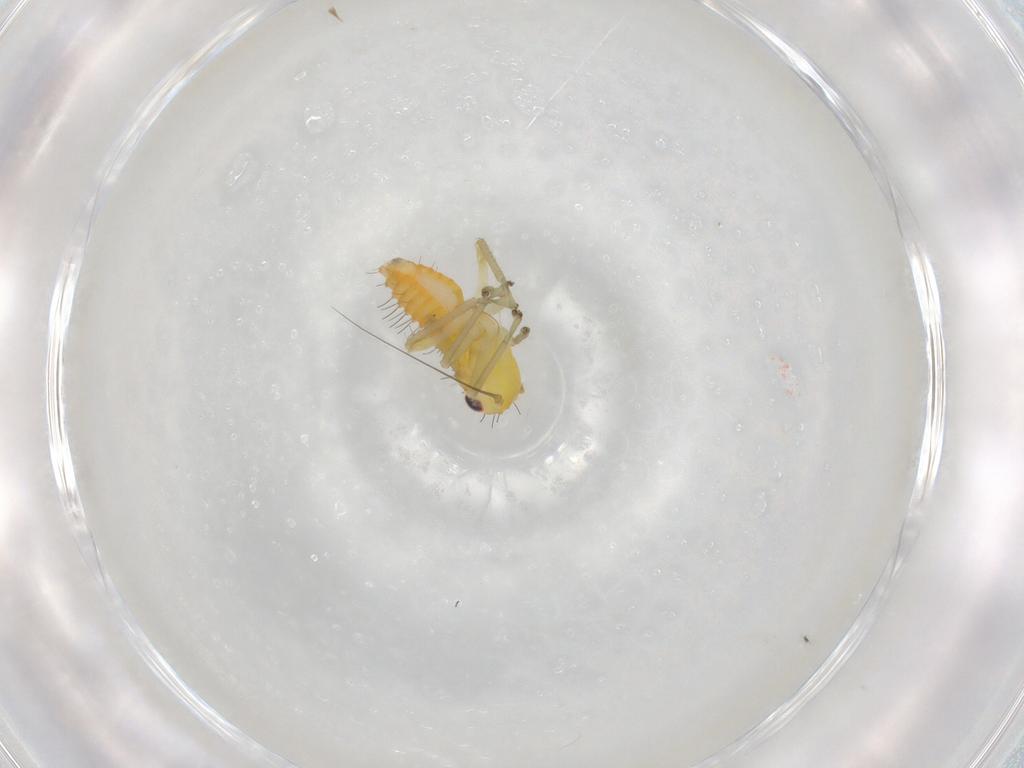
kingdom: Animalia
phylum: Arthropoda
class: Insecta
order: Hemiptera
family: Cicadellidae
